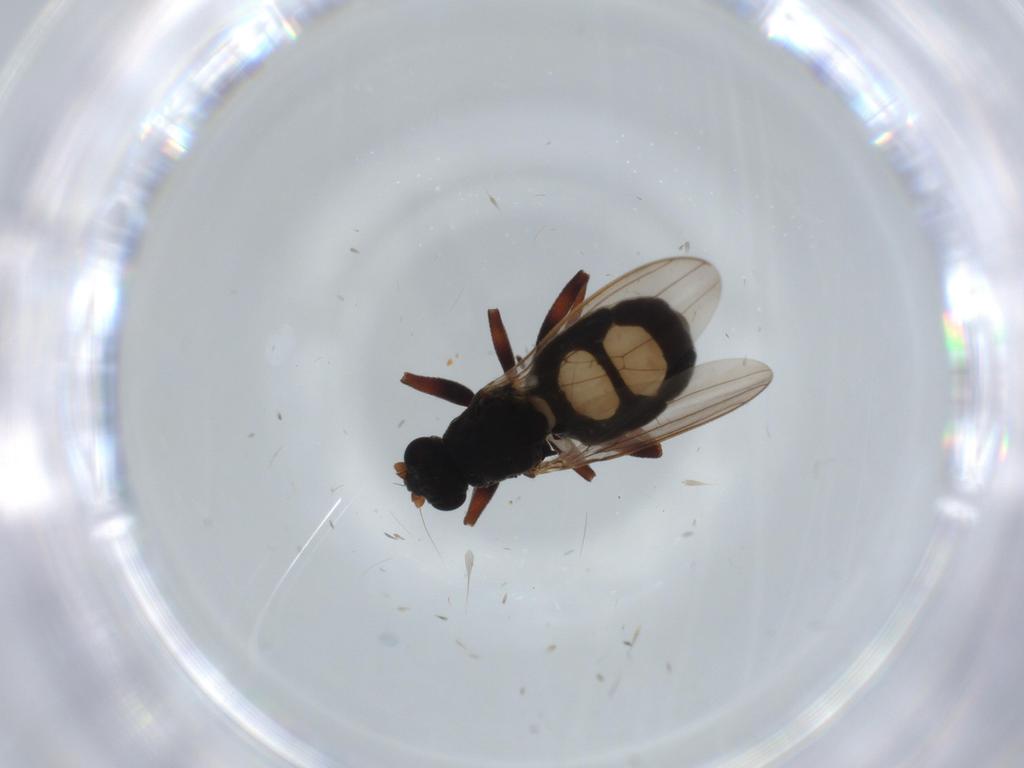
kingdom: Animalia
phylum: Arthropoda
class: Insecta
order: Diptera
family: Sphaeroceridae
